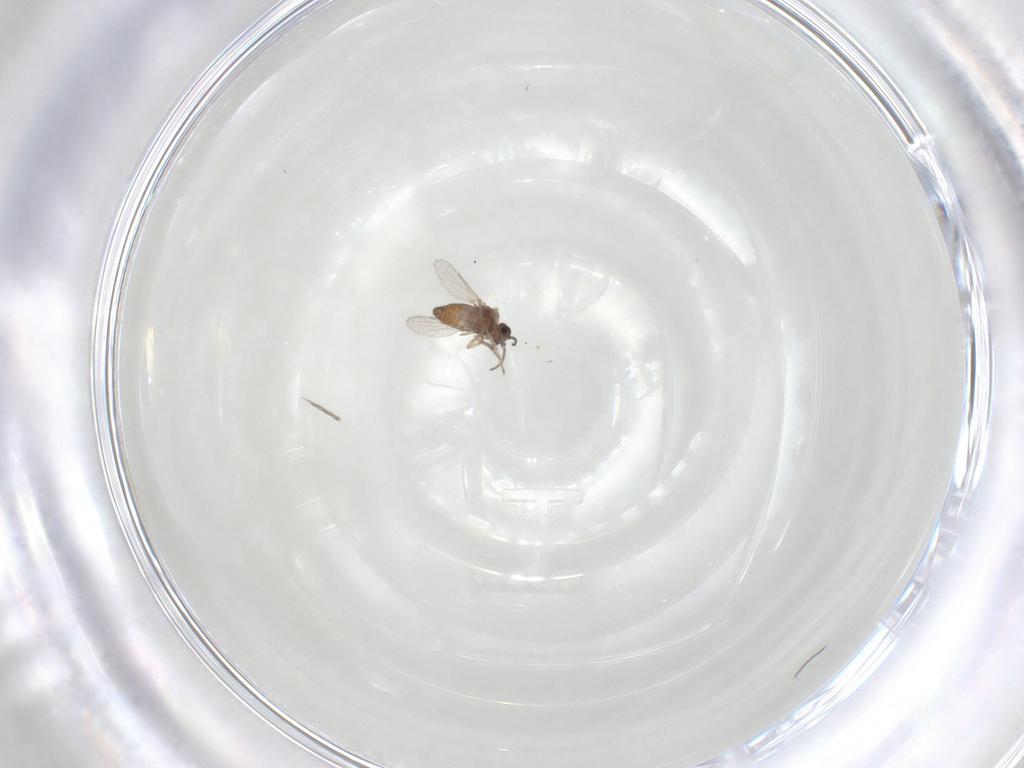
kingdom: Animalia
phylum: Arthropoda
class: Insecta
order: Diptera
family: Ceratopogonidae
